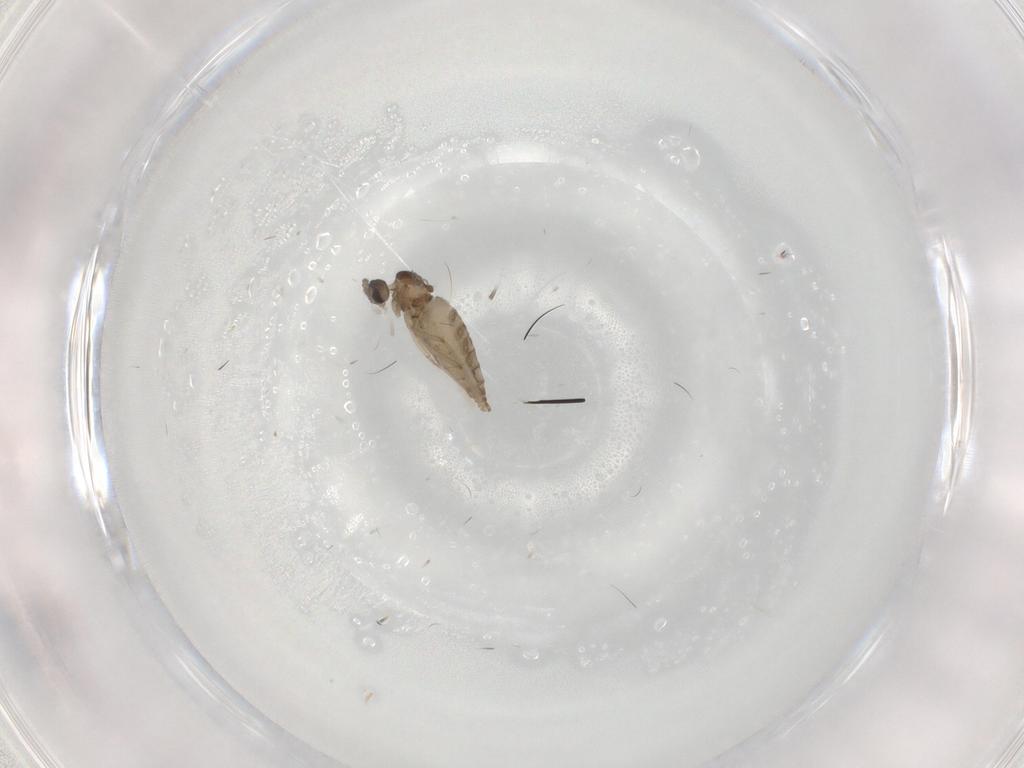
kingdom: Animalia
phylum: Arthropoda
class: Insecta
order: Diptera
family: Cecidomyiidae
